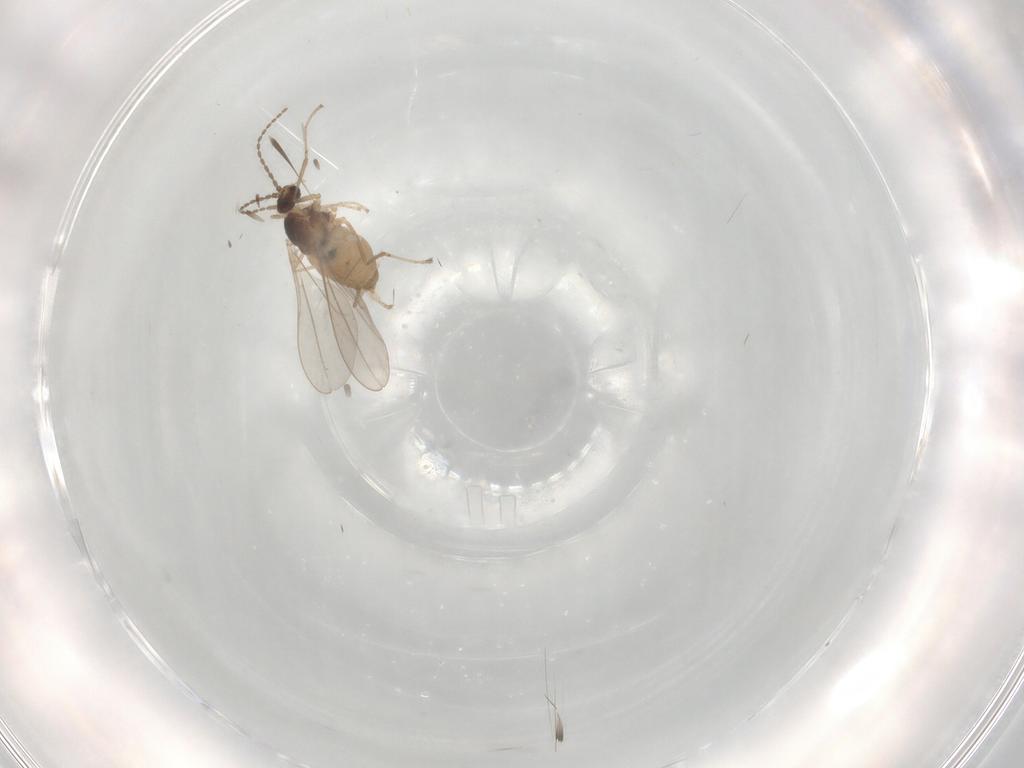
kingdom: Animalia
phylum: Arthropoda
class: Insecta
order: Diptera
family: Cecidomyiidae
